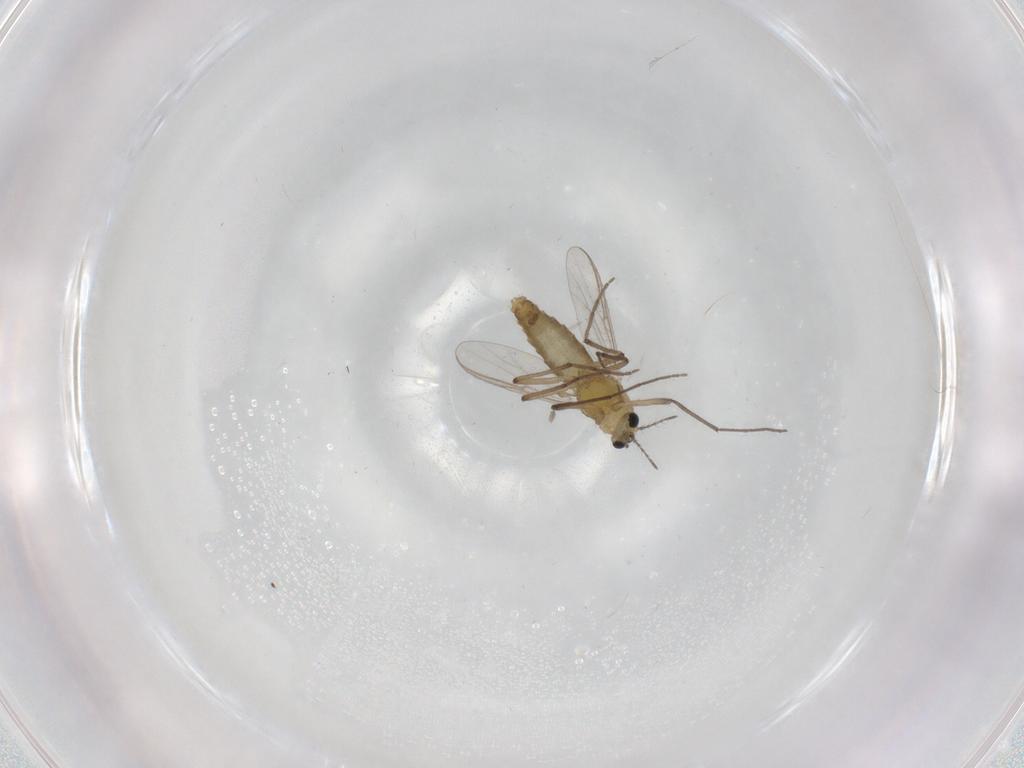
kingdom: Animalia
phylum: Arthropoda
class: Insecta
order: Diptera
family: Chironomidae
